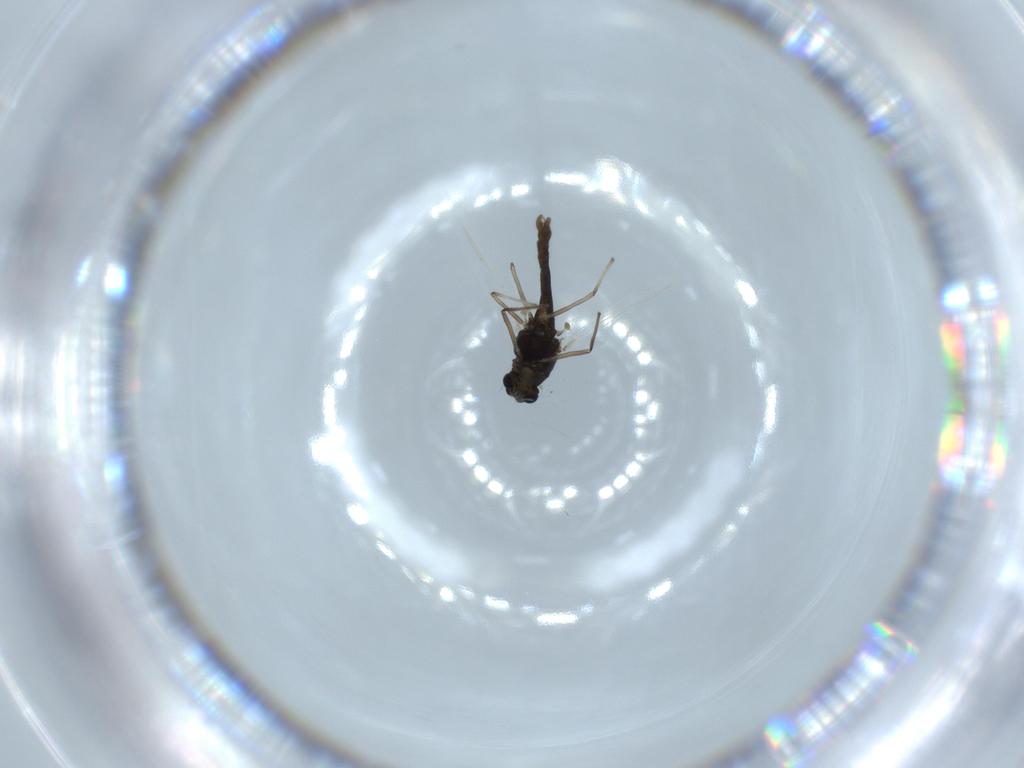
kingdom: Animalia
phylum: Arthropoda
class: Insecta
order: Diptera
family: Chironomidae
